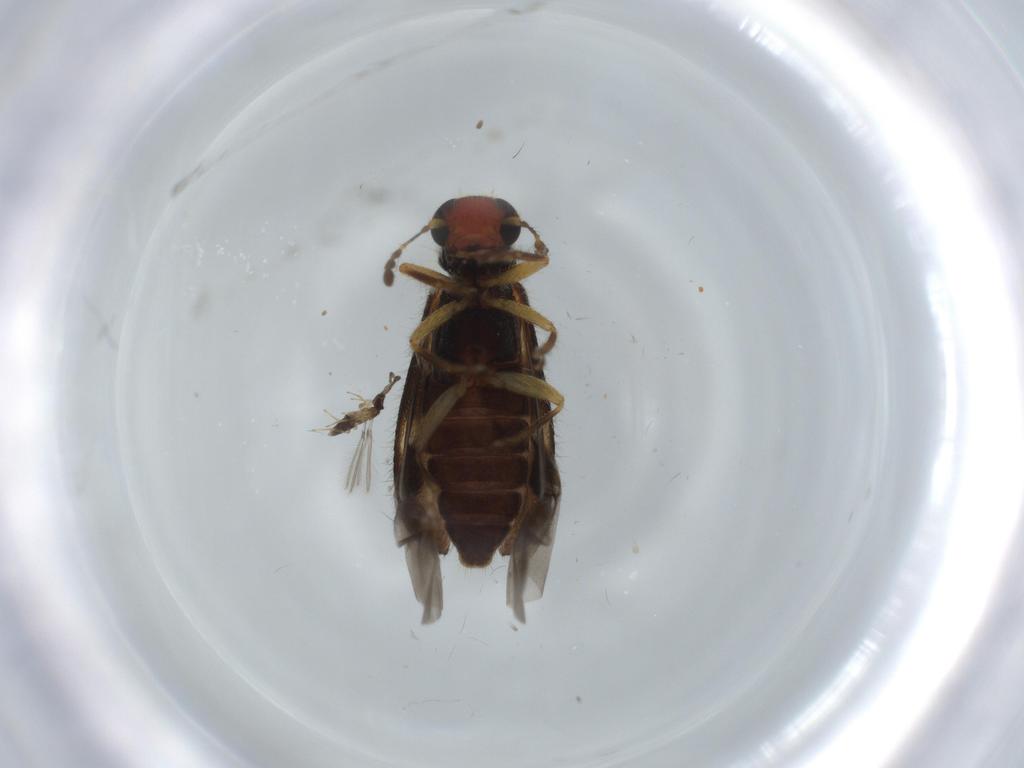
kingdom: Animalia
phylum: Arthropoda
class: Insecta
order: Coleoptera
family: Cleridae
